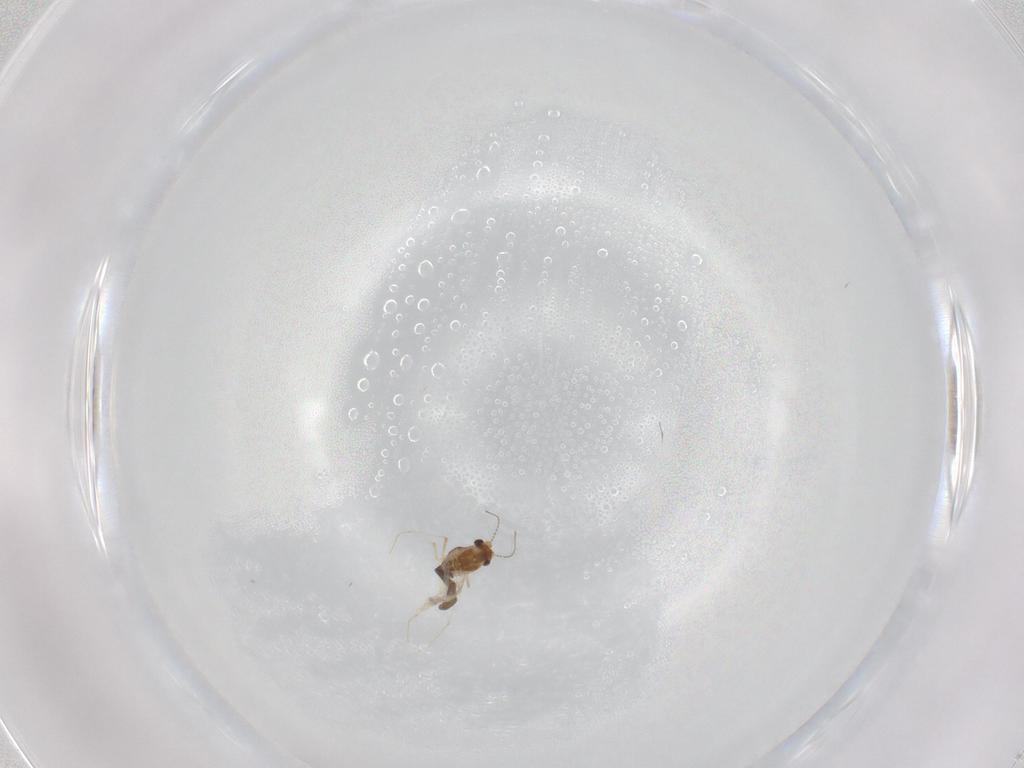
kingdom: Animalia
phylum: Arthropoda
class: Insecta
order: Diptera
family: Chironomidae
